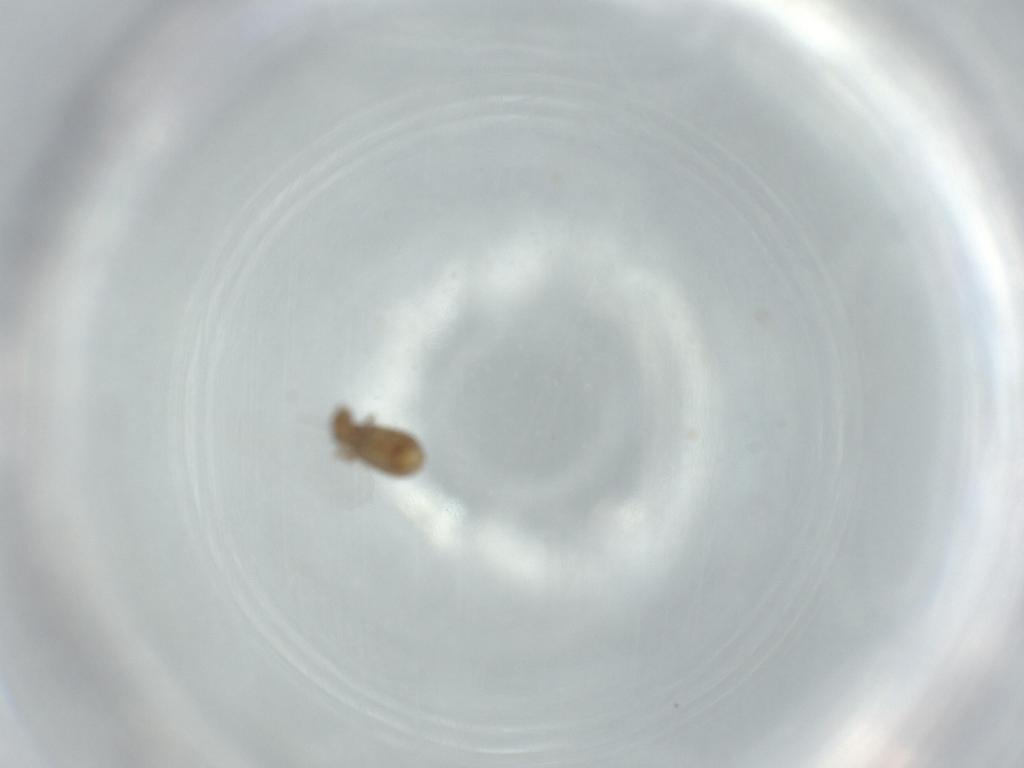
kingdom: Animalia
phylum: Arthropoda
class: Insecta
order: Psocodea
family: Liposcelididae
